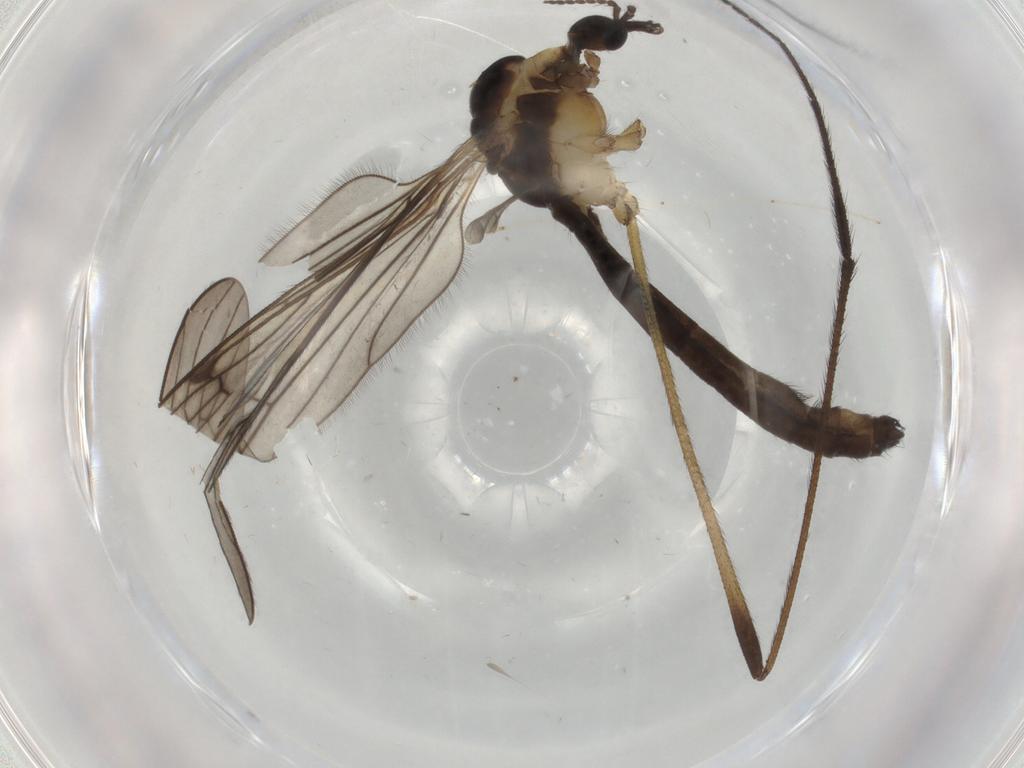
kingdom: Animalia
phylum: Arthropoda
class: Insecta
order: Diptera
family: Limoniidae
